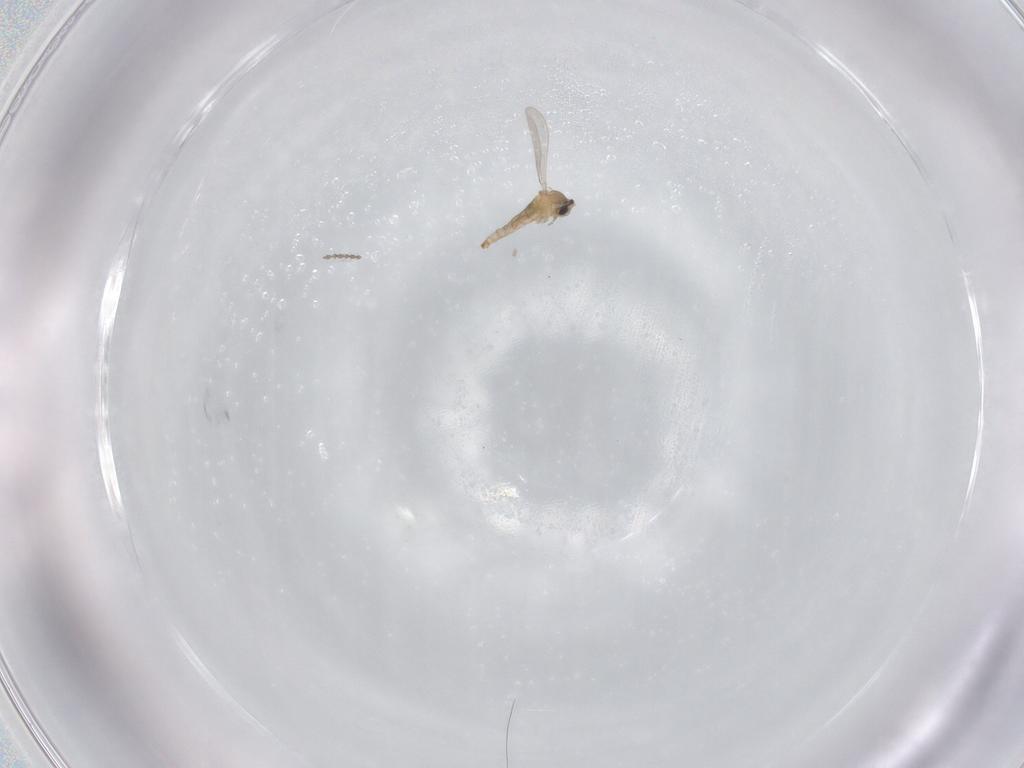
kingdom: Animalia
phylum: Arthropoda
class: Insecta
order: Diptera
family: Cecidomyiidae
